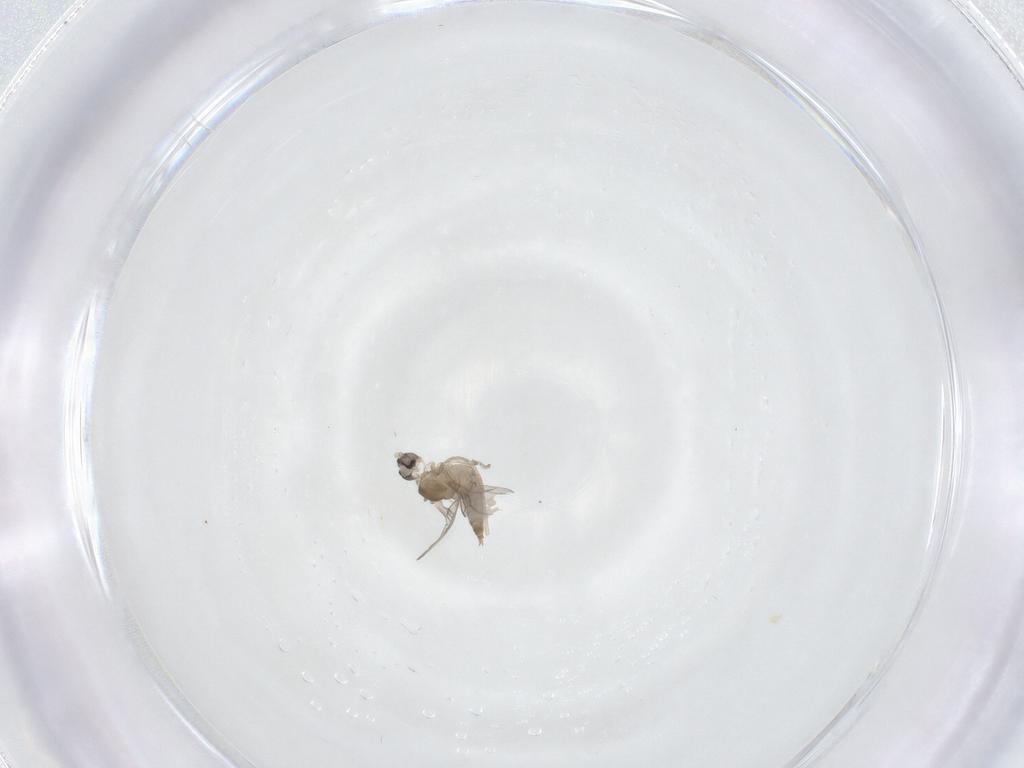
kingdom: Animalia
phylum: Arthropoda
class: Insecta
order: Diptera
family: Cecidomyiidae
